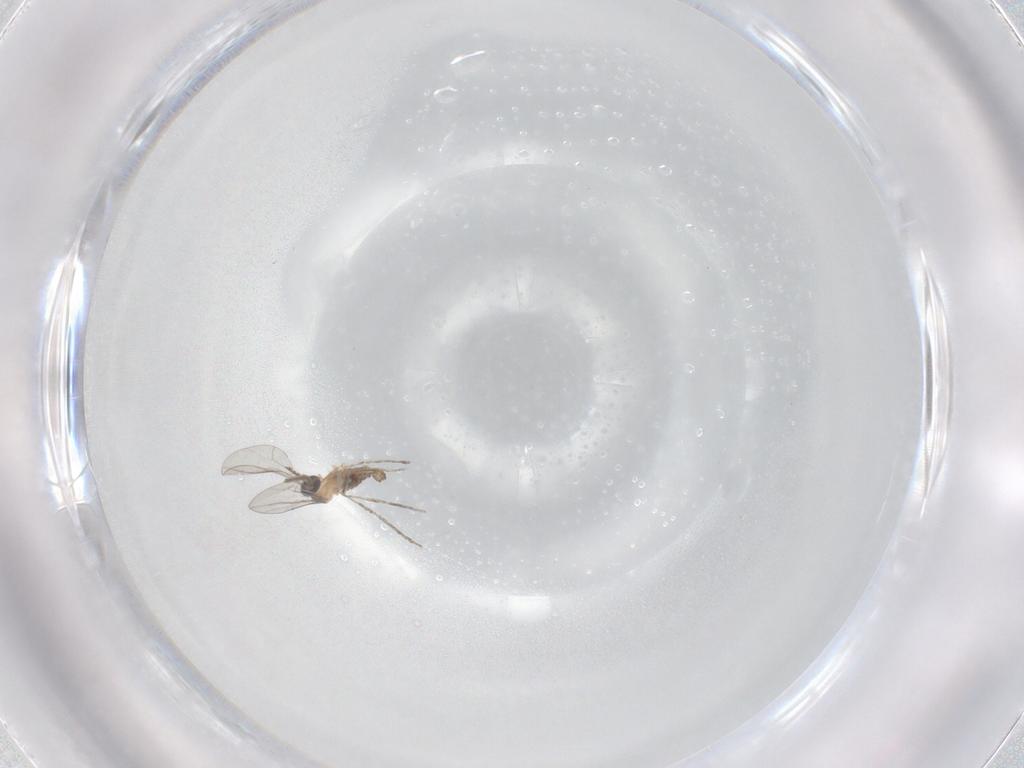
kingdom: Animalia
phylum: Arthropoda
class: Insecta
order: Diptera
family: Cecidomyiidae
